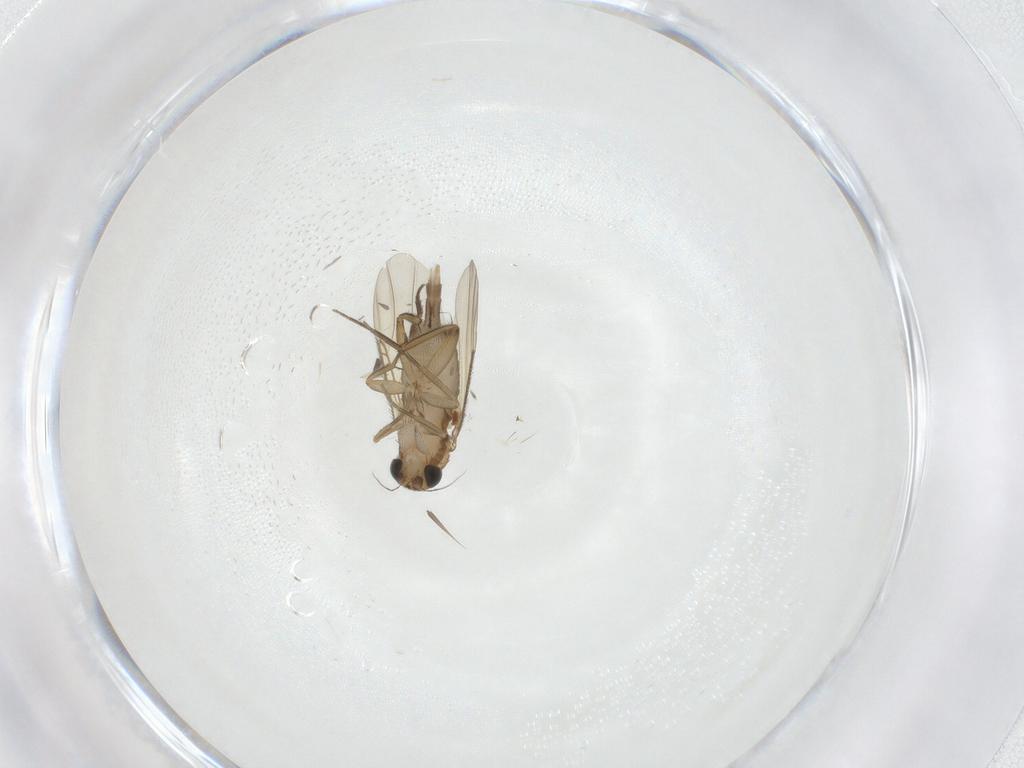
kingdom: Animalia
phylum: Arthropoda
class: Insecta
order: Diptera
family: Phoridae
